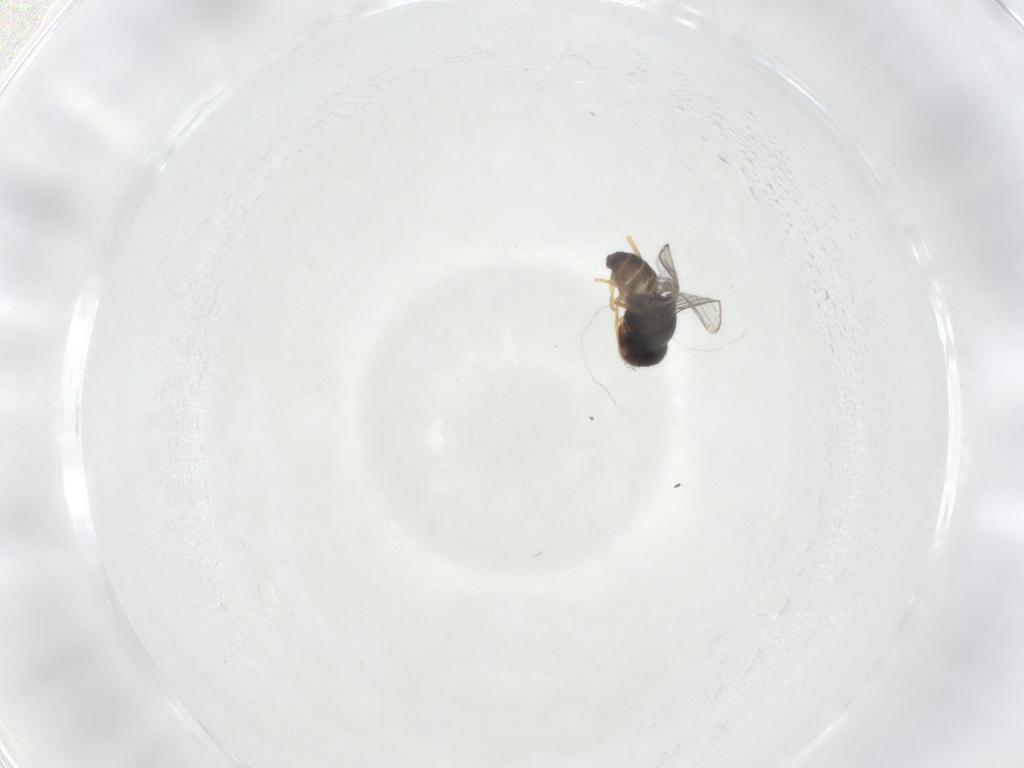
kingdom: Animalia
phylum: Arthropoda
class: Insecta
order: Diptera
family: Chloropidae
